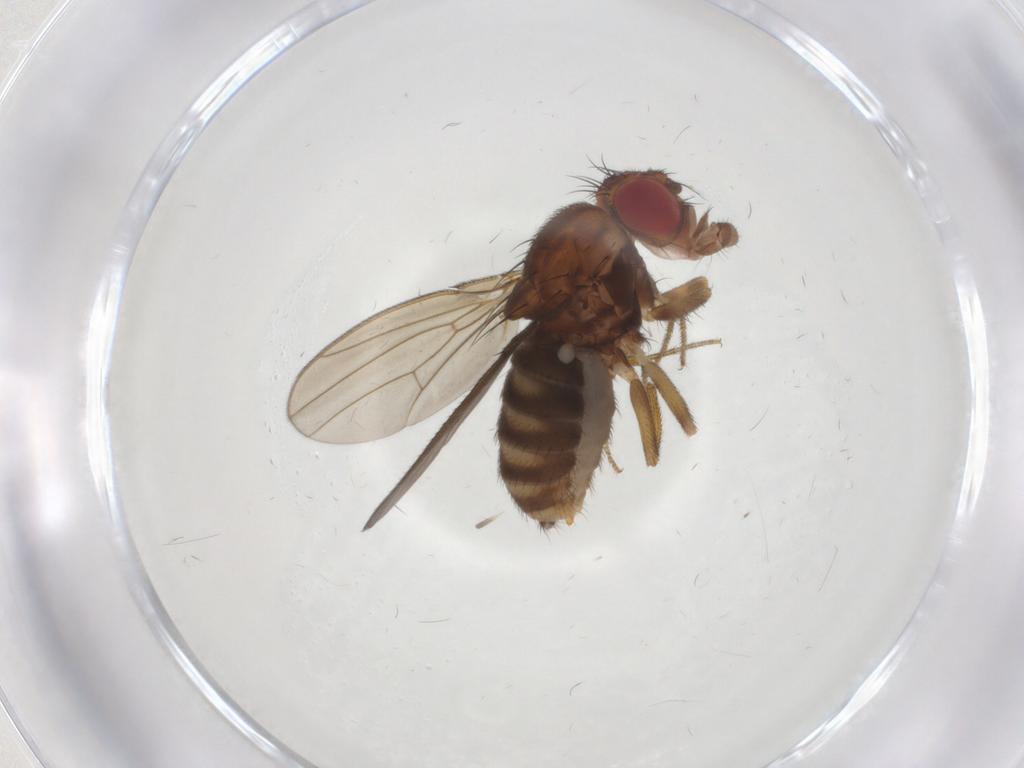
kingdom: Animalia
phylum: Arthropoda
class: Insecta
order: Diptera
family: Drosophilidae
